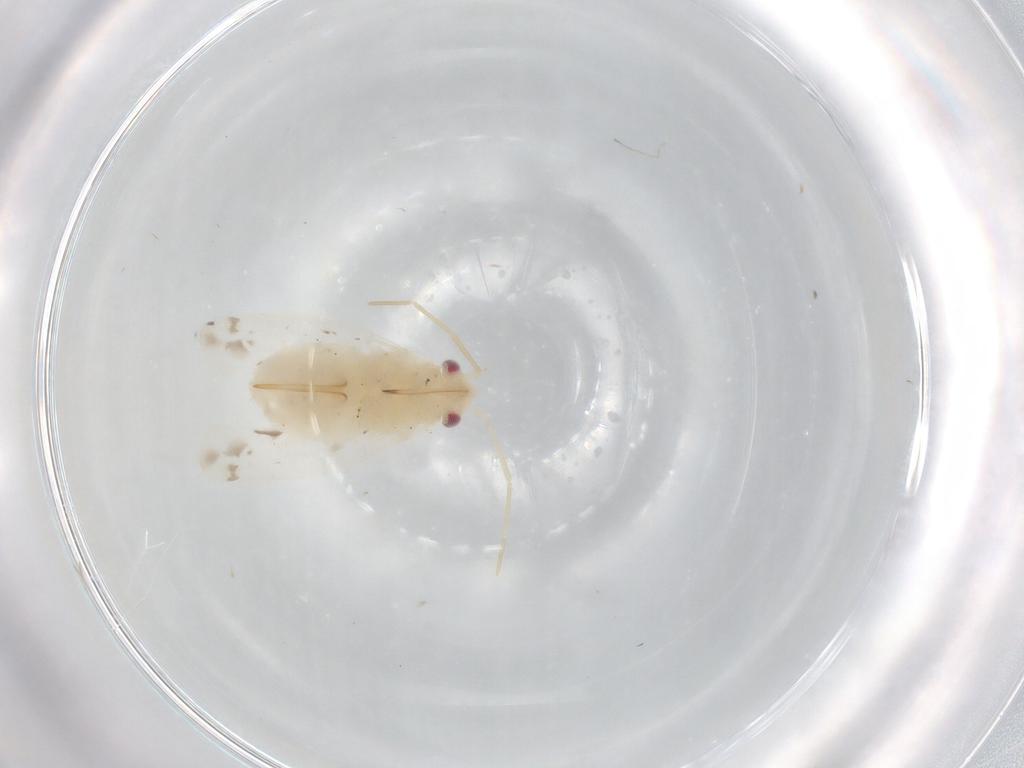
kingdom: Animalia
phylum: Arthropoda
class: Insecta
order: Hemiptera
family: Miridae
